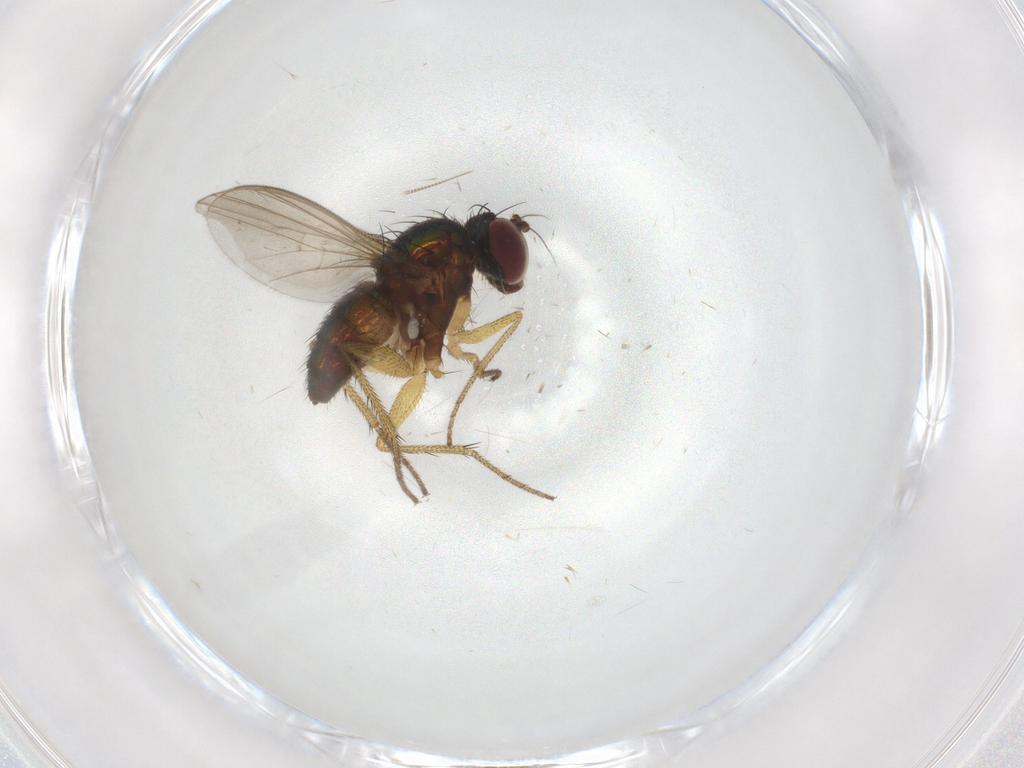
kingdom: Animalia
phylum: Arthropoda
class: Insecta
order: Diptera
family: Dolichopodidae
